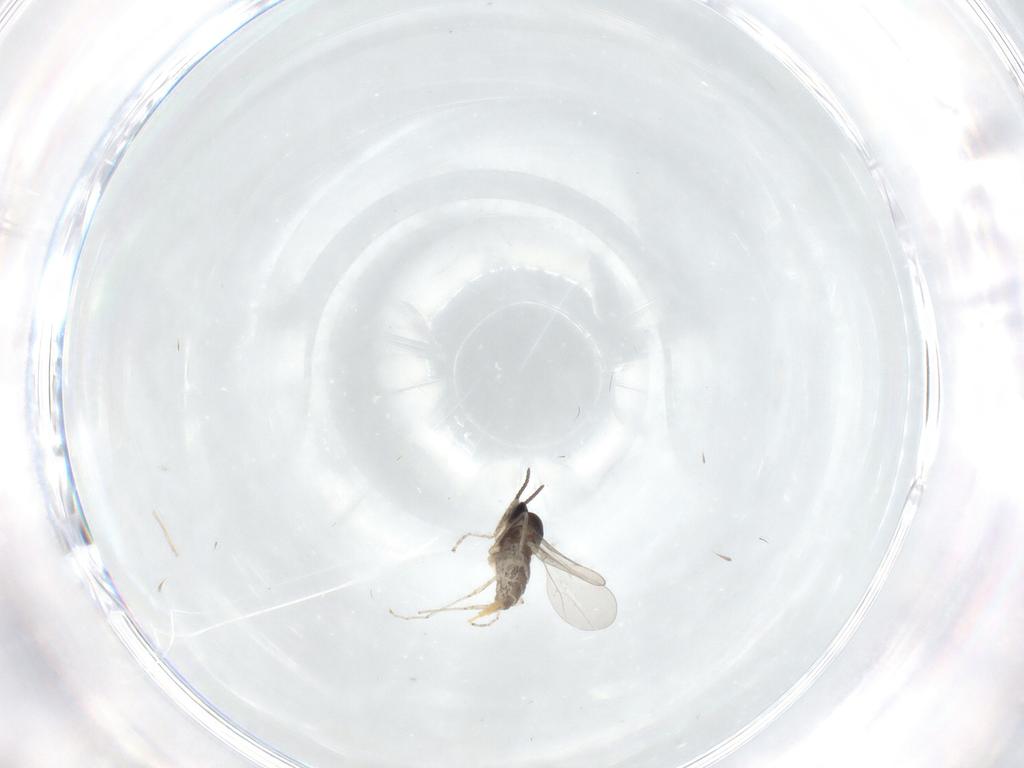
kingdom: Animalia
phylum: Arthropoda
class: Insecta
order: Diptera
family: Cecidomyiidae
